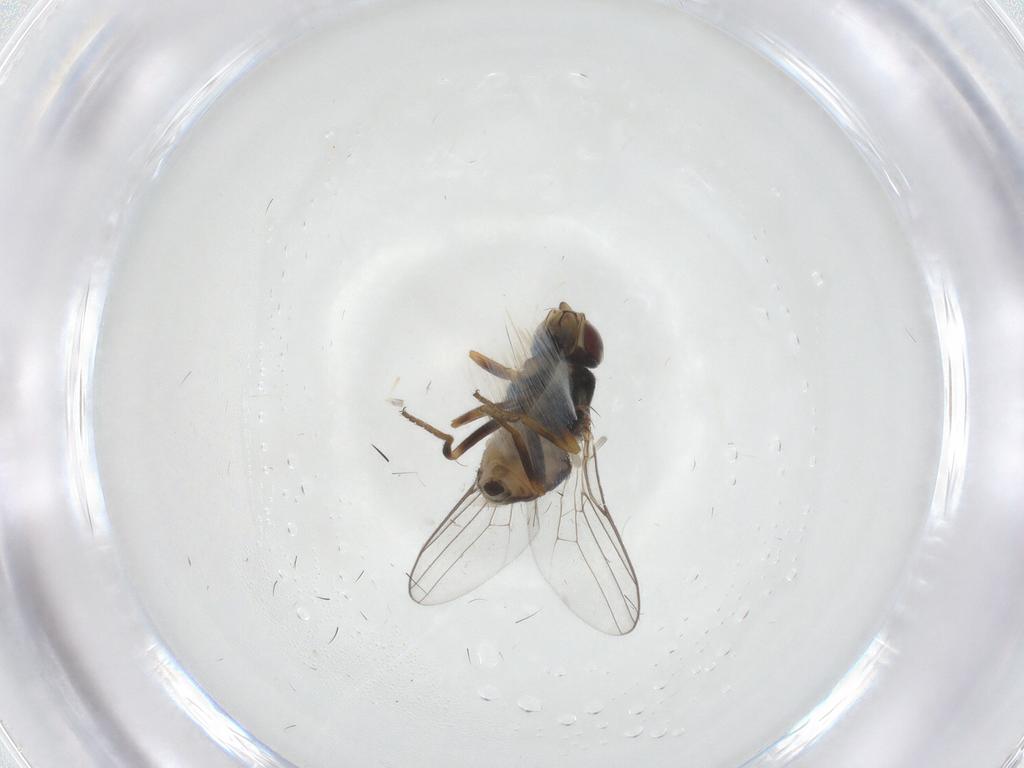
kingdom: Animalia
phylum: Arthropoda
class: Insecta
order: Diptera
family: Chloropidae
